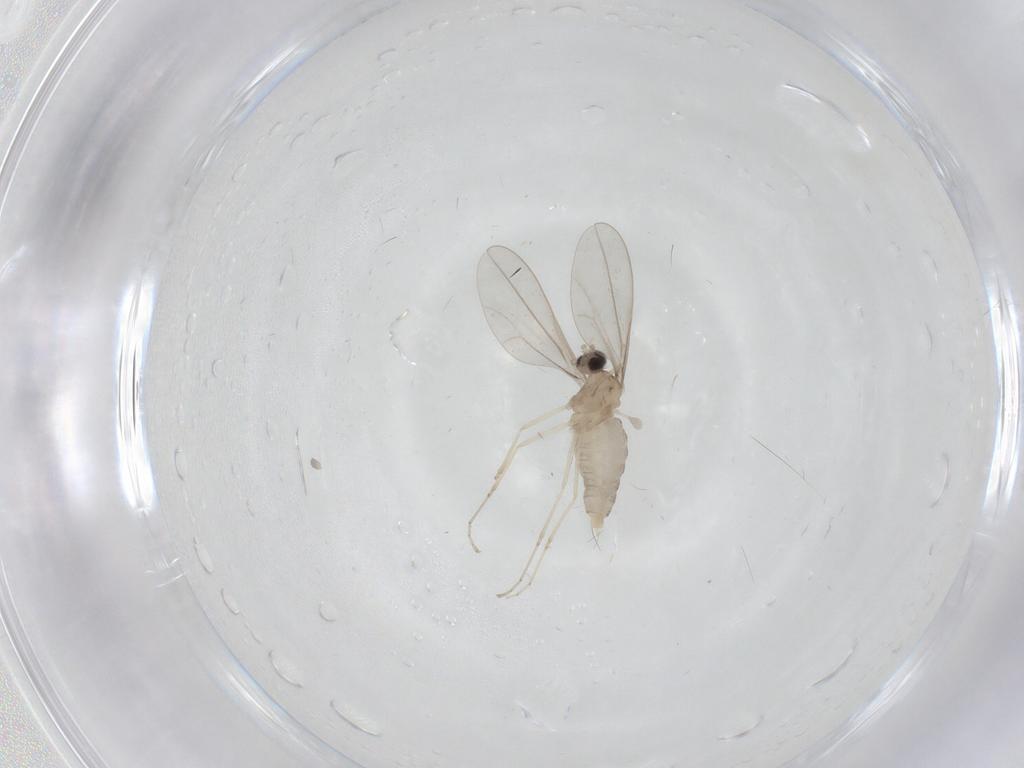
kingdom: Animalia
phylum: Arthropoda
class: Insecta
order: Diptera
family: Cecidomyiidae
